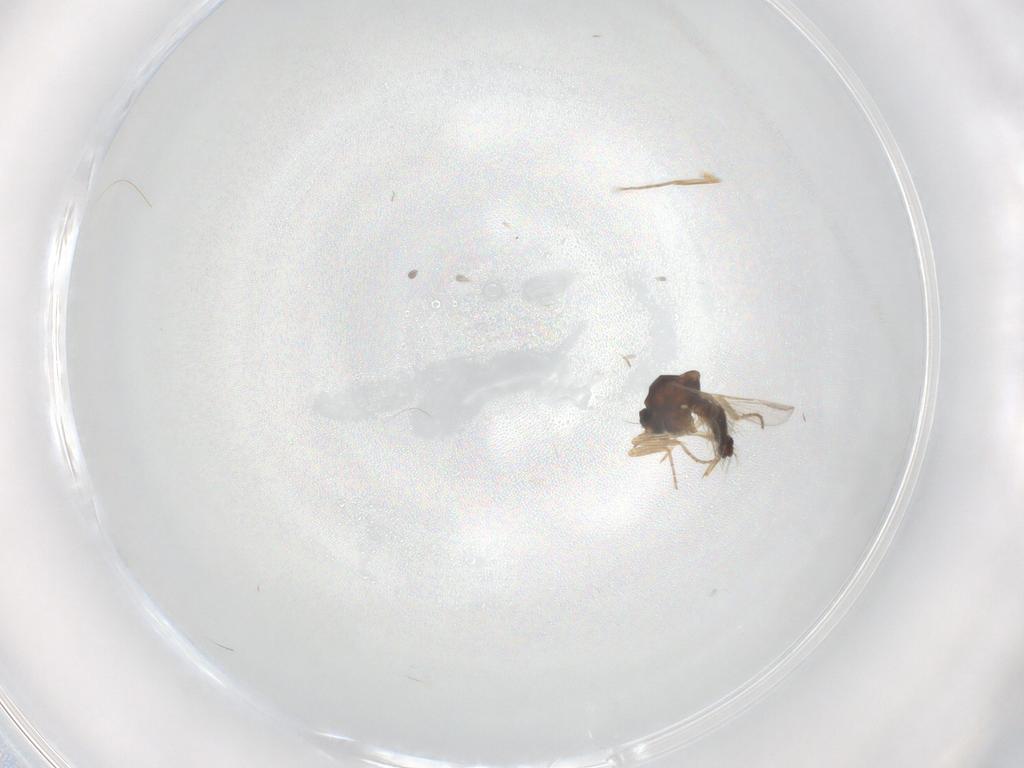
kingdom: Animalia
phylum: Arthropoda
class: Insecta
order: Diptera
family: Ceratopogonidae
